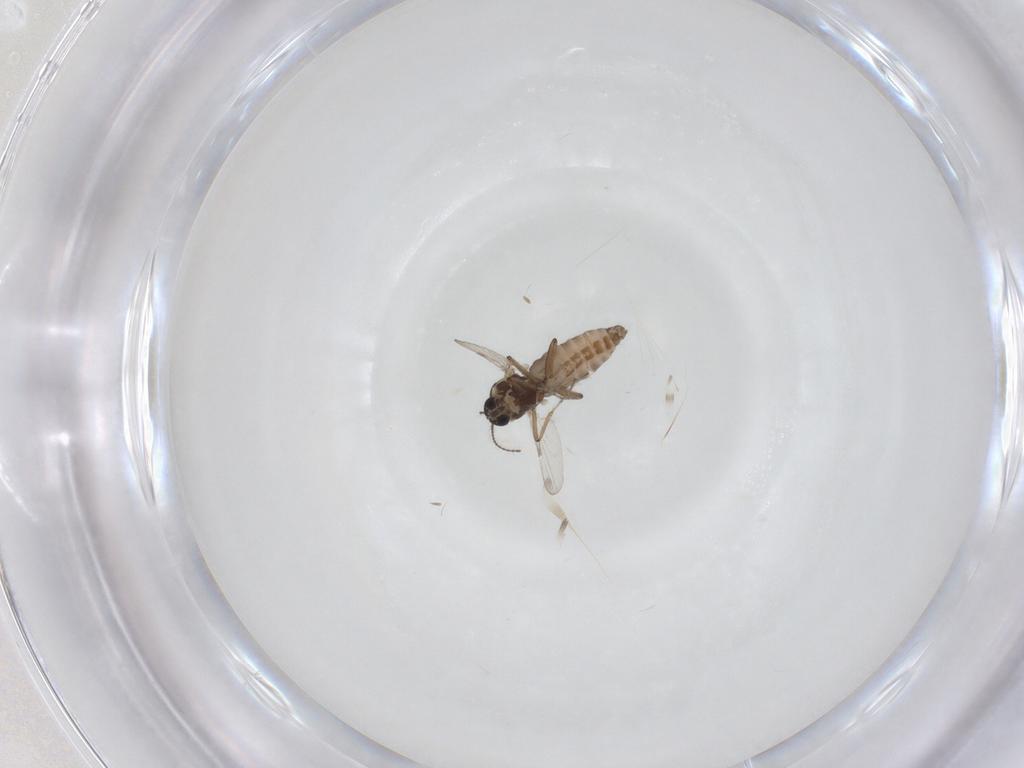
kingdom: Animalia
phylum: Arthropoda
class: Insecta
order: Diptera
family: Ceratopogonidae
